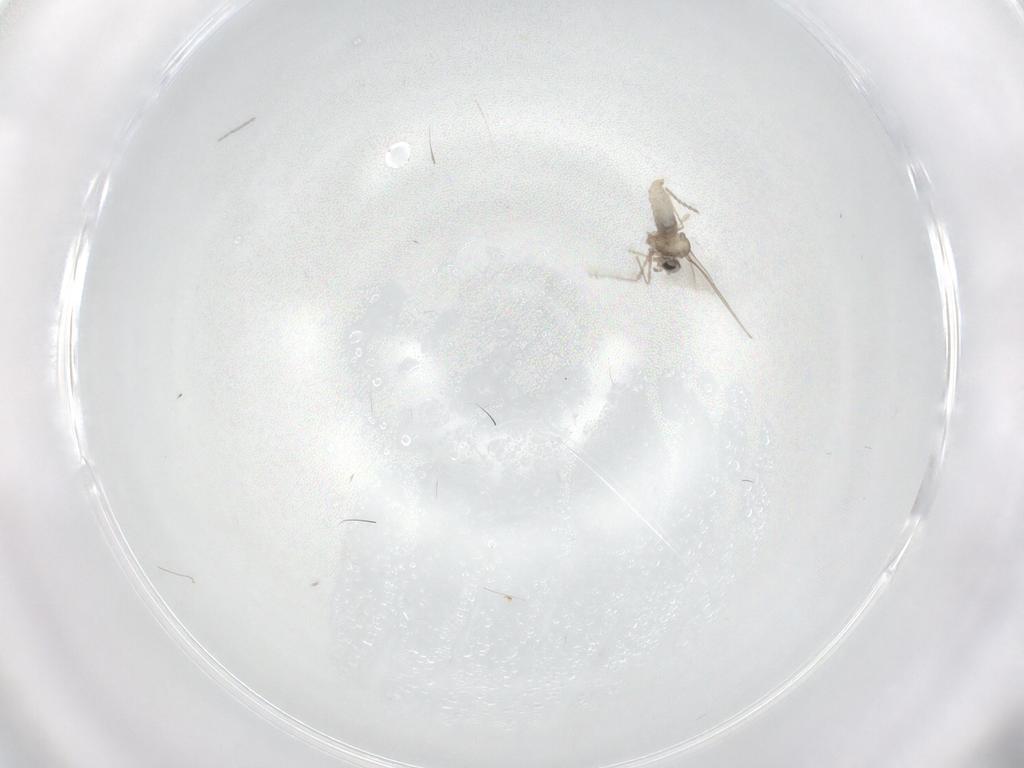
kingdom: Animalia
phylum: Arthropoda
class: Insecta
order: Diptera
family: Cecidomyiidae
